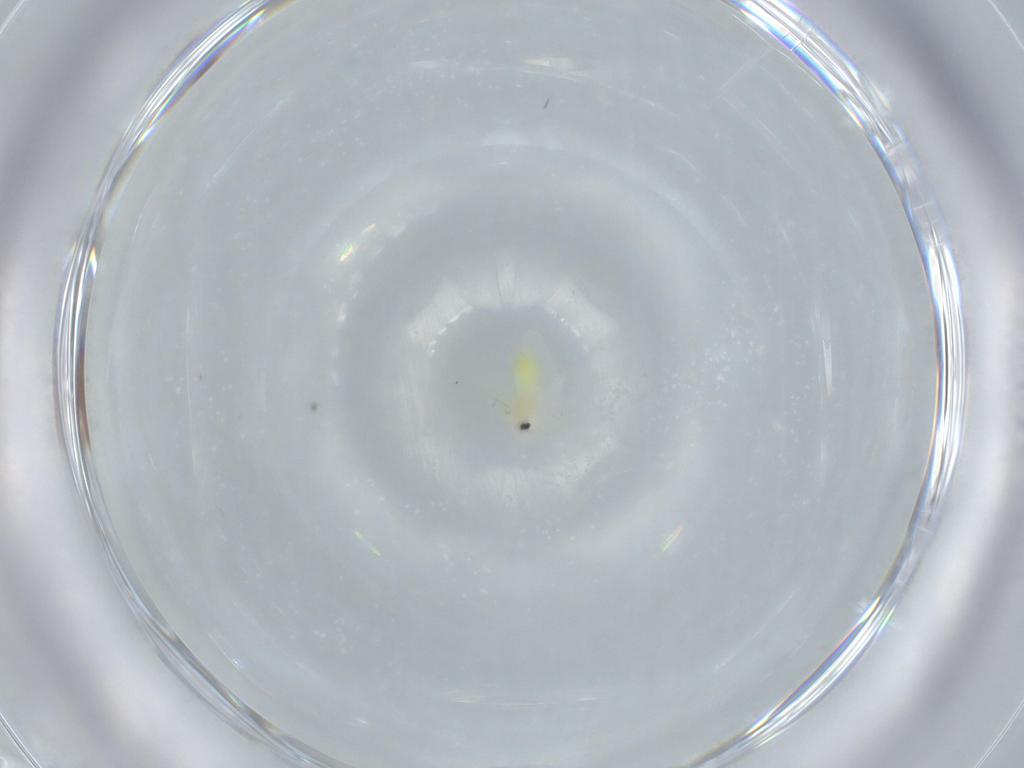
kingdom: Animalia
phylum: Arthropoda
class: Insecta
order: Hemiptera
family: Aleyrodidae
